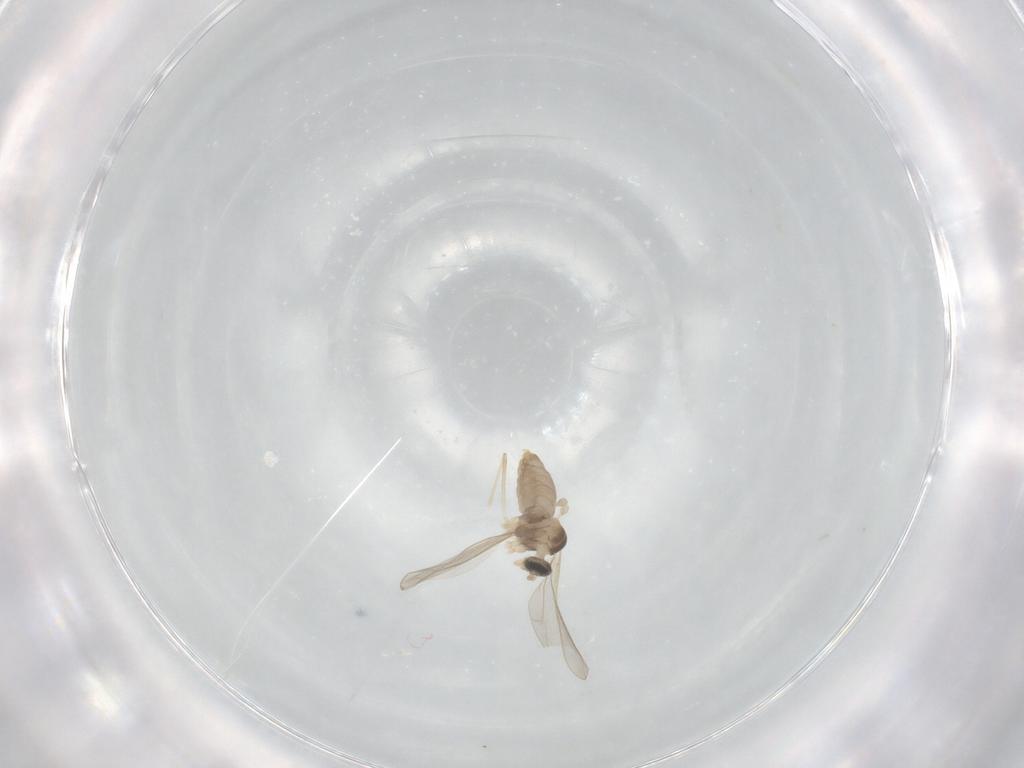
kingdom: Animalia
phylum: Arthropoda
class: Insecta
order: Diptera
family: Cecidomyiidae
